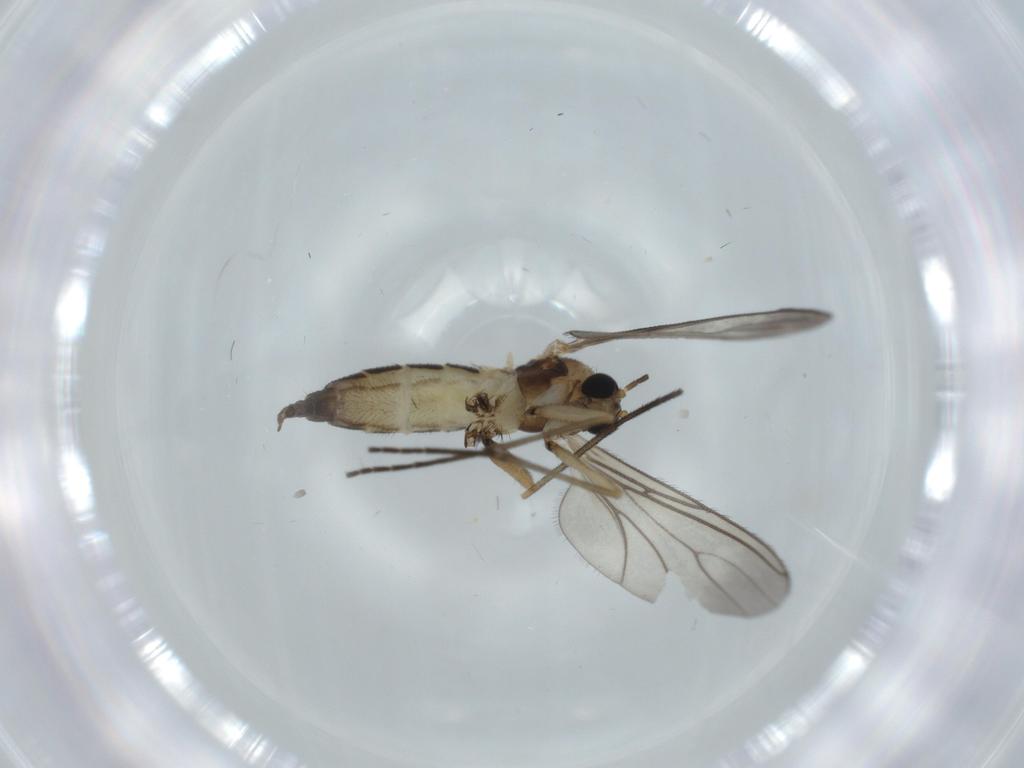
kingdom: Animalia
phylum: Arthropoda
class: Insecta
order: Diptera
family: Sciaridae
